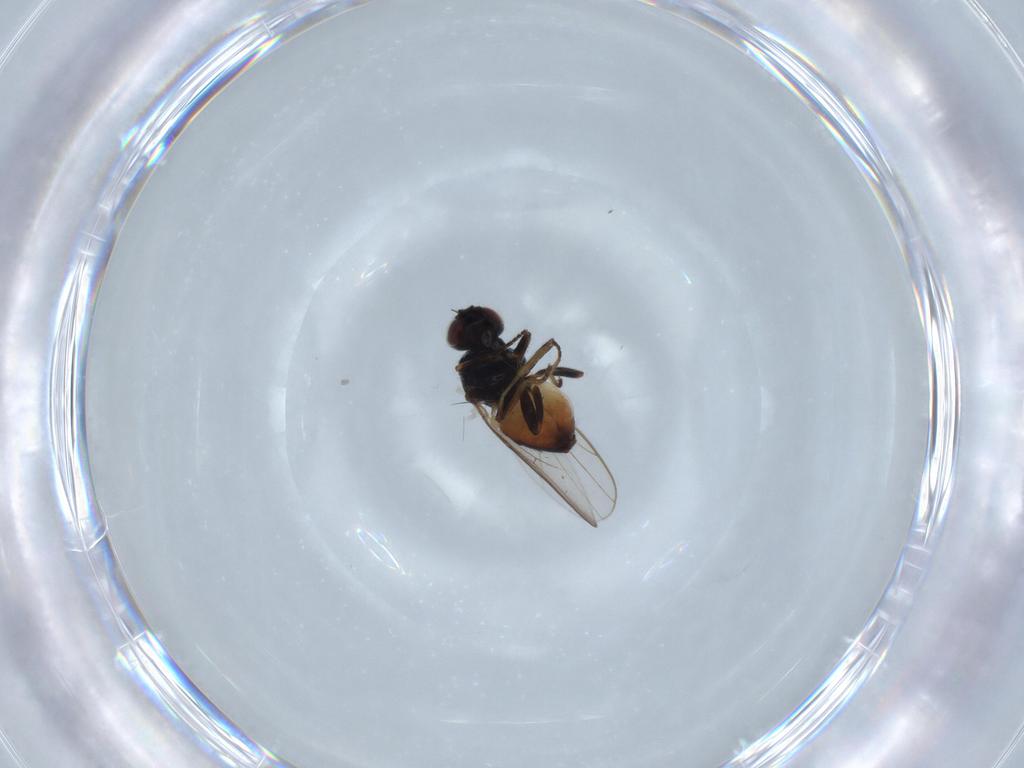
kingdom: Animalia
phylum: Arthropoda
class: Insecta
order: Diptera
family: Chloropidae
